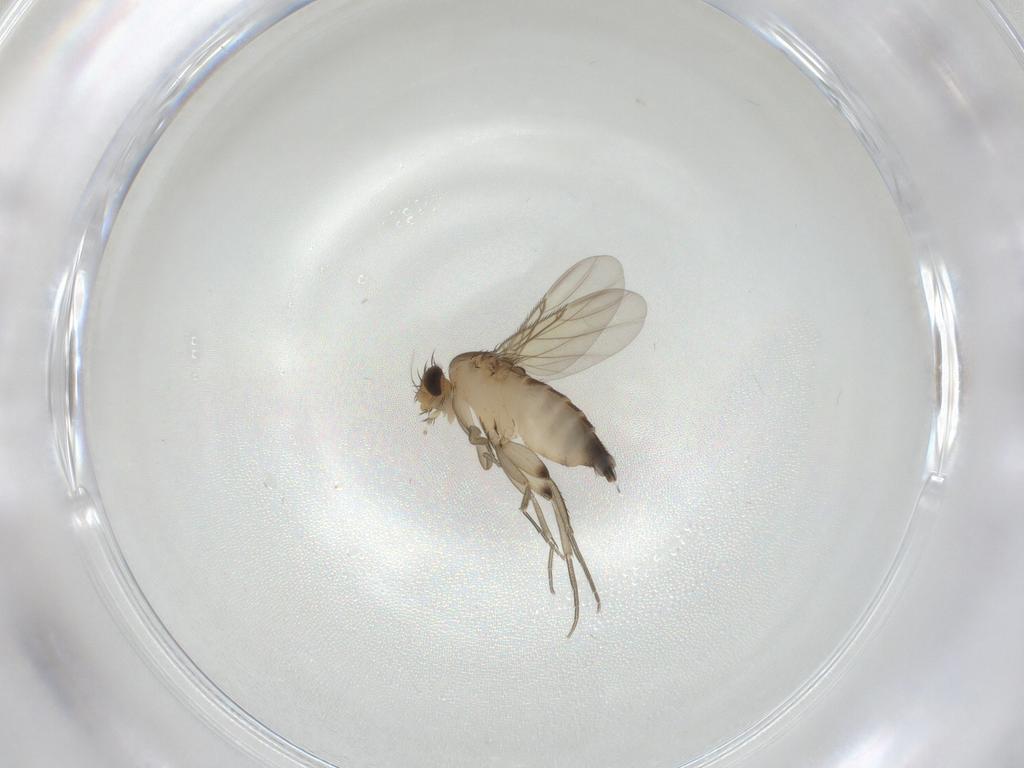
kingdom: Animalia
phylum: Arthropoda
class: Insecta
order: Diptera
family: Cecidomyiidae
